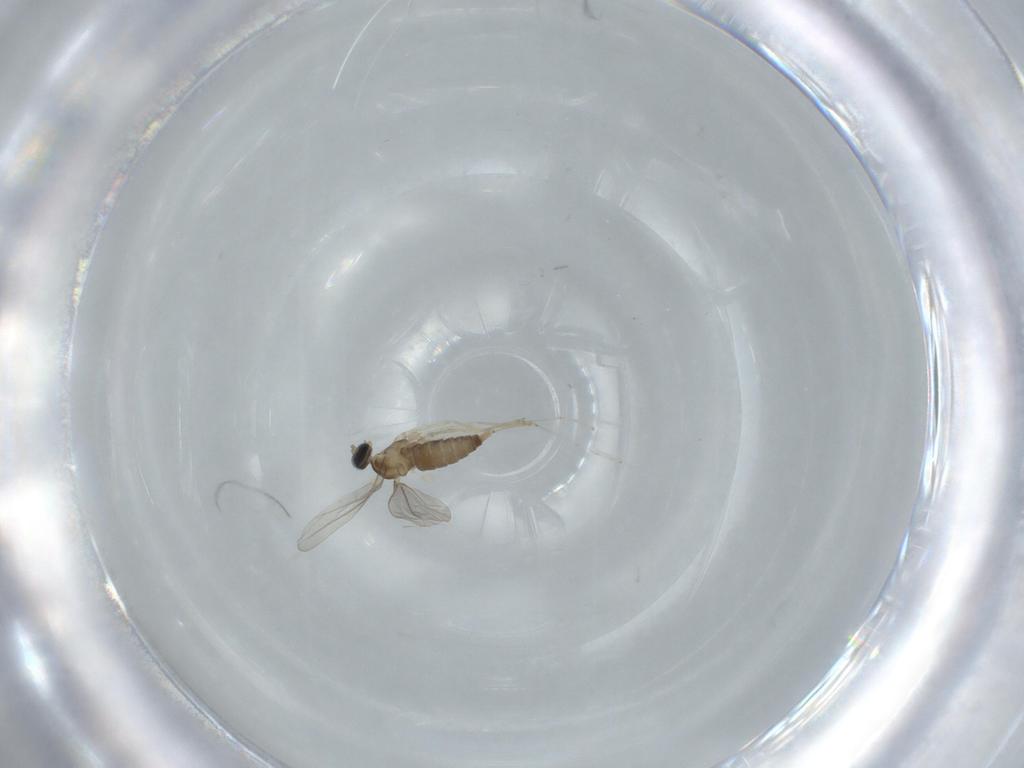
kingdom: Animalia
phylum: Arthropoda
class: Insecta
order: Diptera
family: Cecidomyiidae
